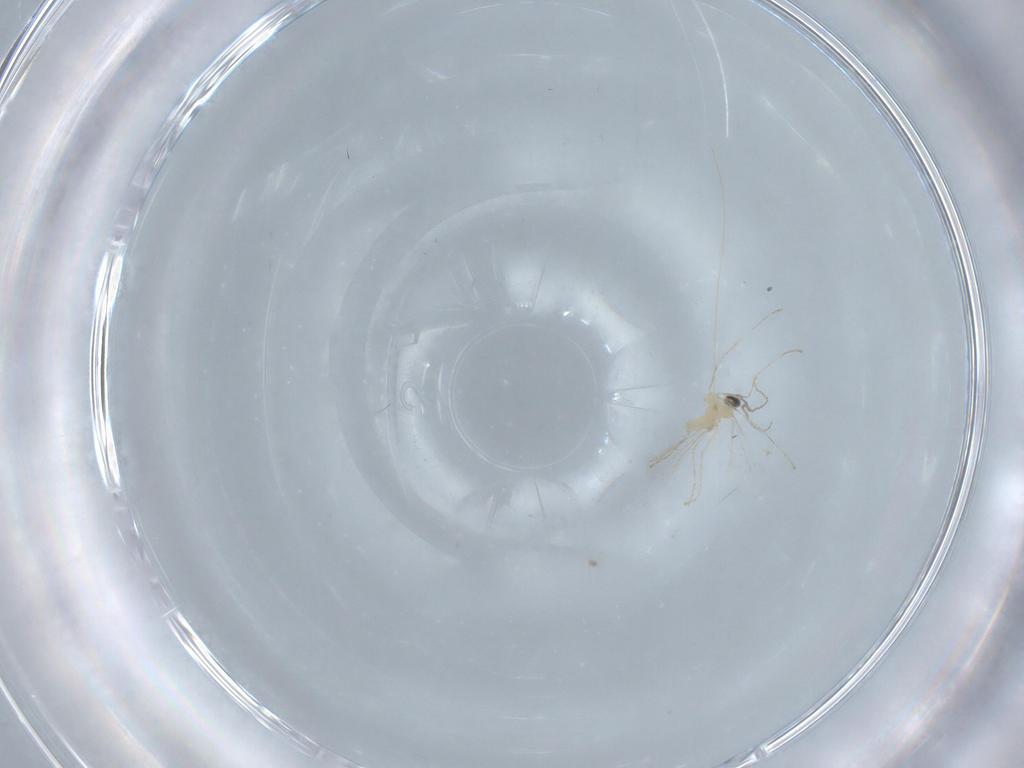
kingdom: Animalia
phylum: Arthropoda
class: Insecta
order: Diptera
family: Cecidomyiidae
